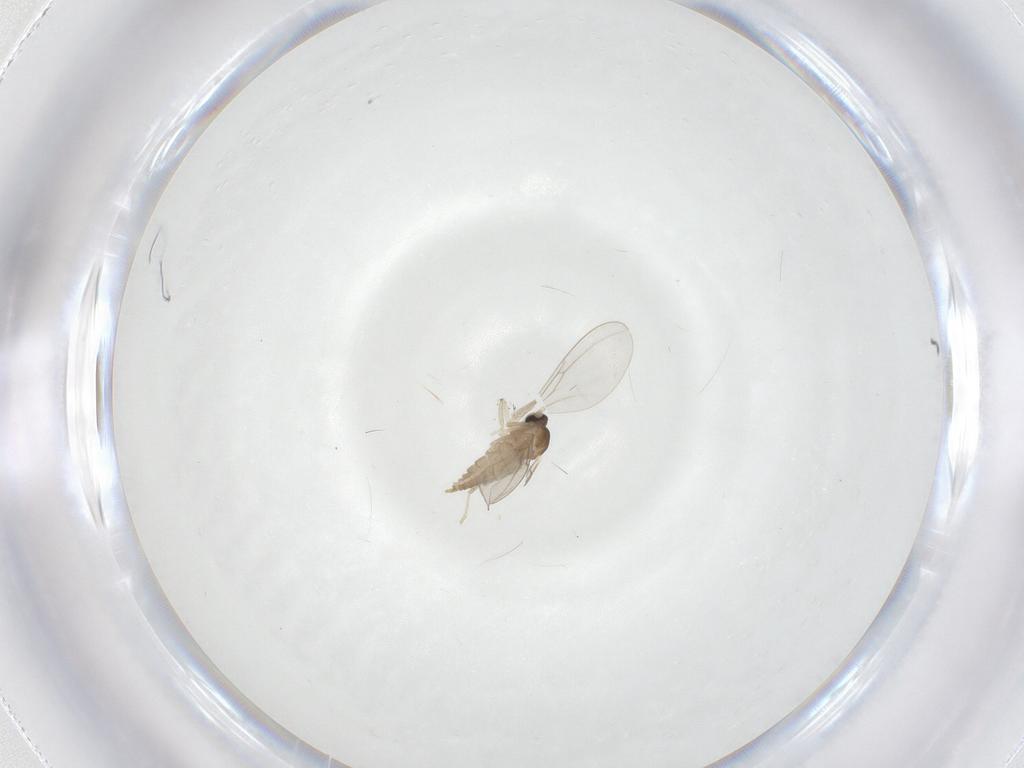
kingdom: Animalia
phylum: Arthropoda
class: Insecta
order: Diptera
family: Cecidomyiidae
